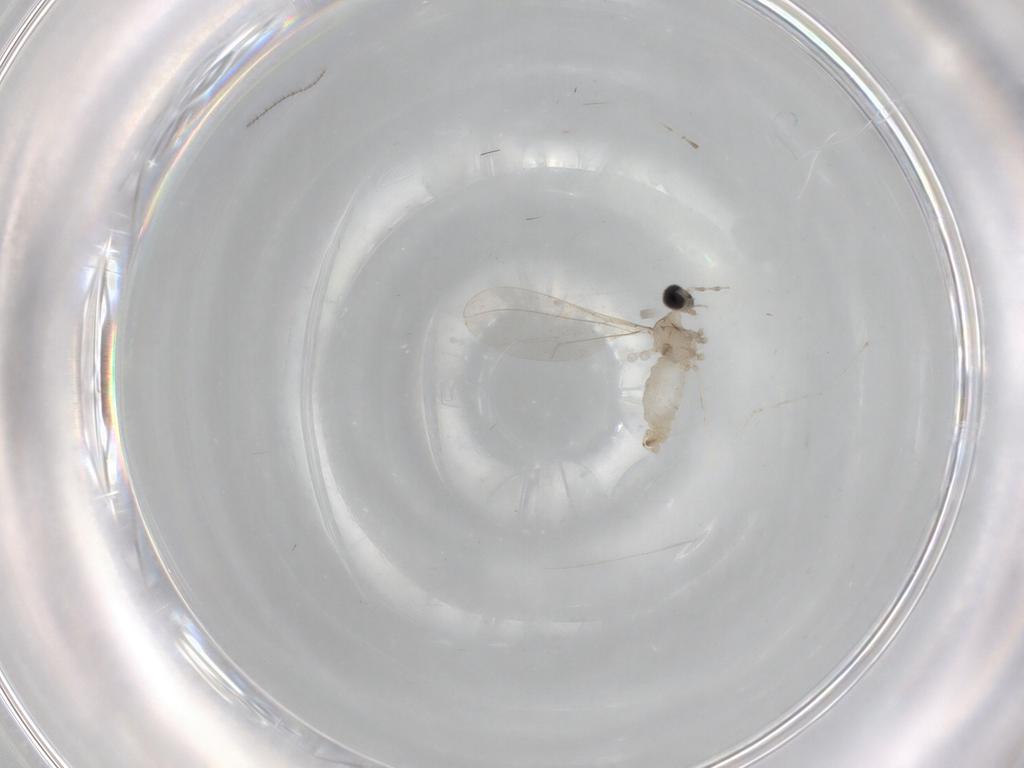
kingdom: Animalia
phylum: Arthropoda
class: Insecta
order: Diptera
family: Cecidomyiidae
